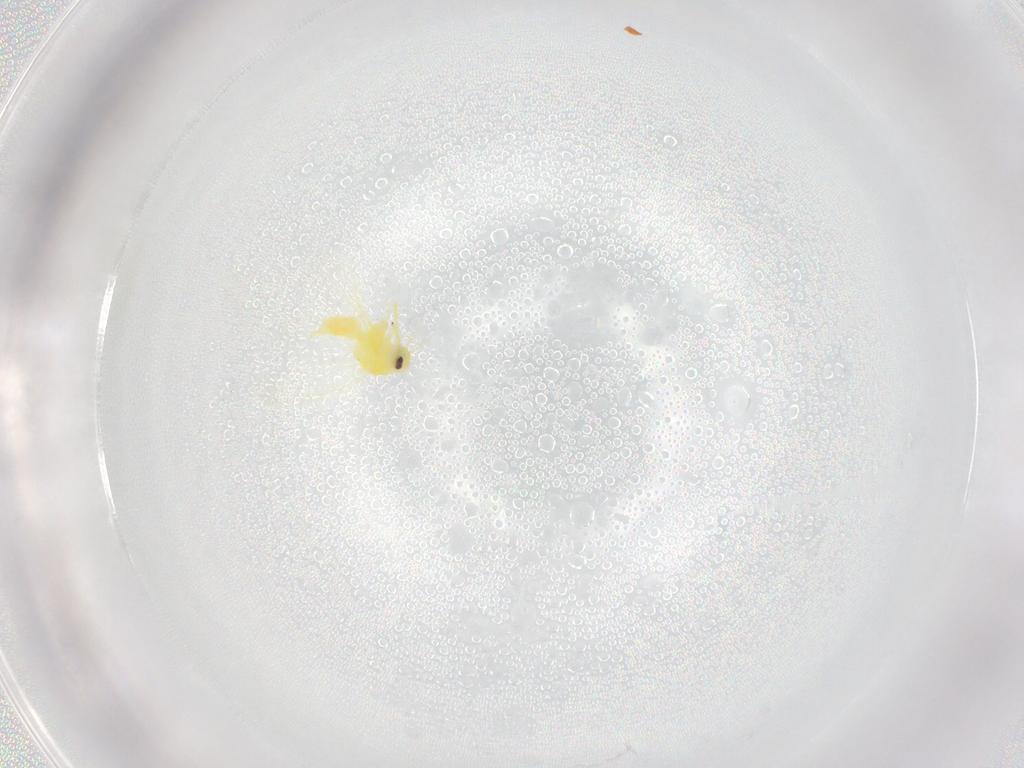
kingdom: Animalia
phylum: Arthropoda
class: Insecta
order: Hemiptera
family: Aleyrodidae
